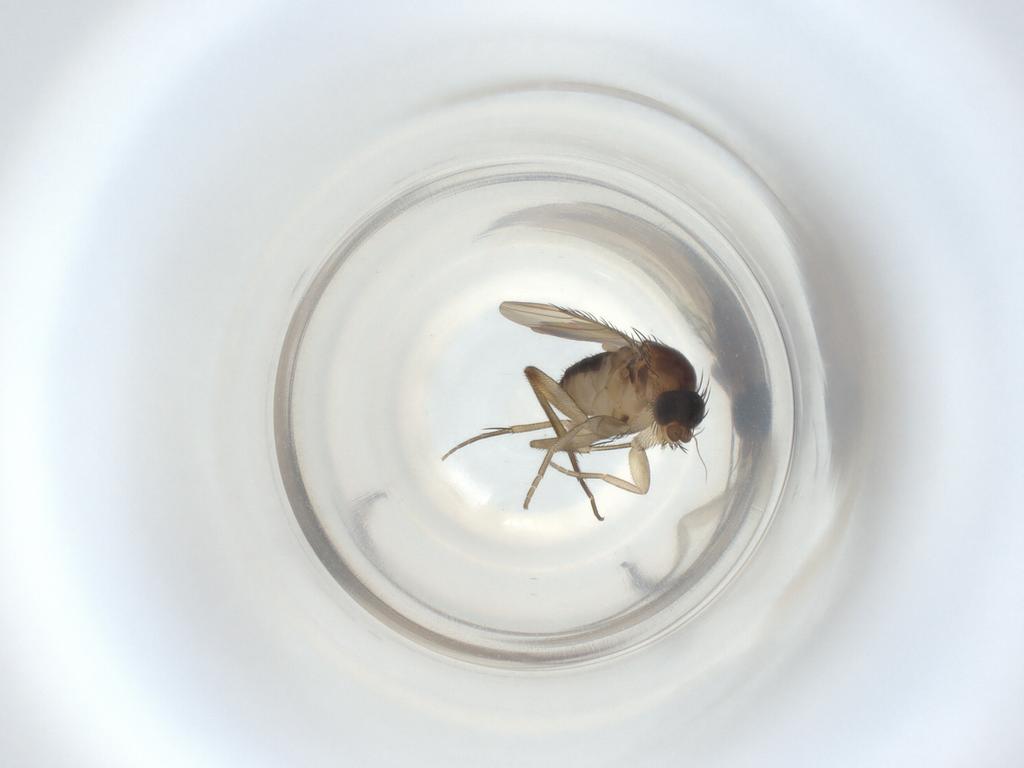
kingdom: Animalia
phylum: Arthropoda
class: Insecta
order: Diptera
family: Phoridae
